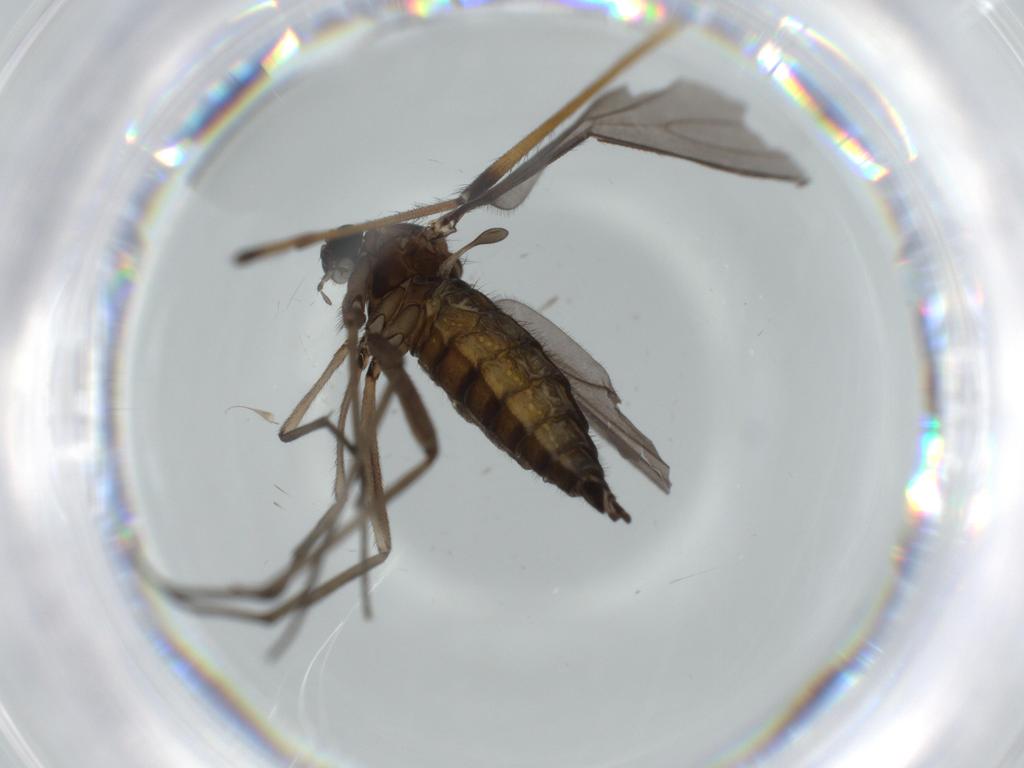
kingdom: Animalia
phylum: Arthropoda
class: Insecta
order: Diptera
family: Sciaridae
